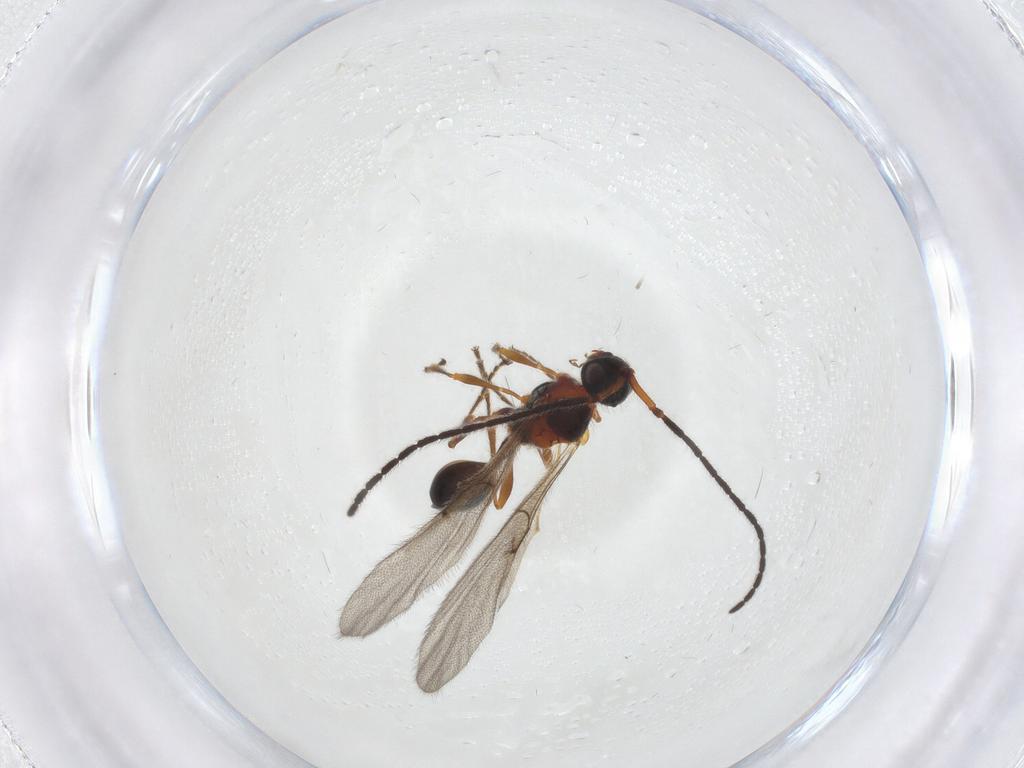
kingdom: Animalia
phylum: Arthropoda
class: Insecta
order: Hymenoptera
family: Diapriidae
